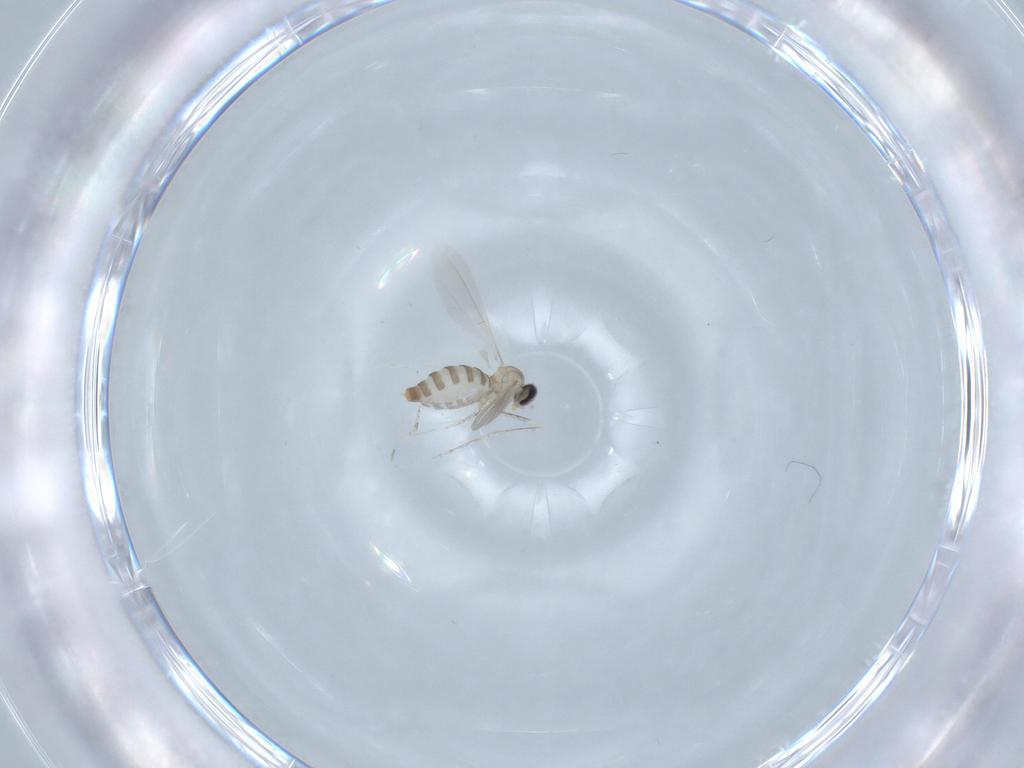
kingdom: Animalia
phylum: Arthropoda
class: Insecta
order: Diptera
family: Cecidomyiidae
